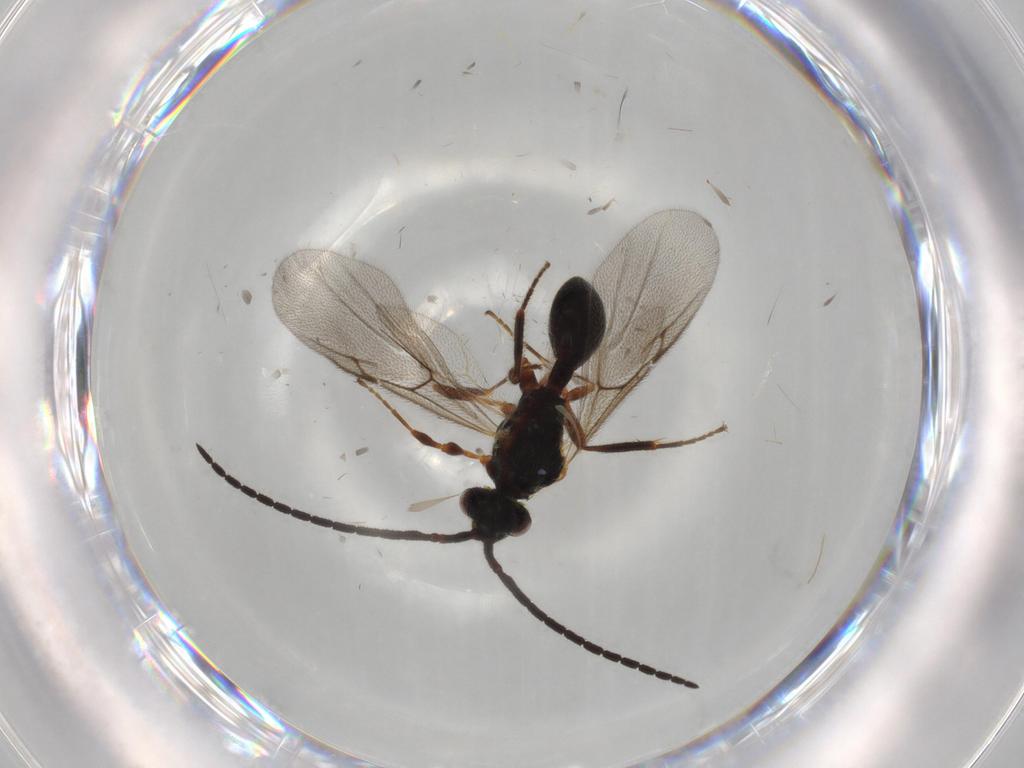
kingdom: Animalia
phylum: Arthropoda
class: Insecta
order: Hymenoptera
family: Diapriidae
